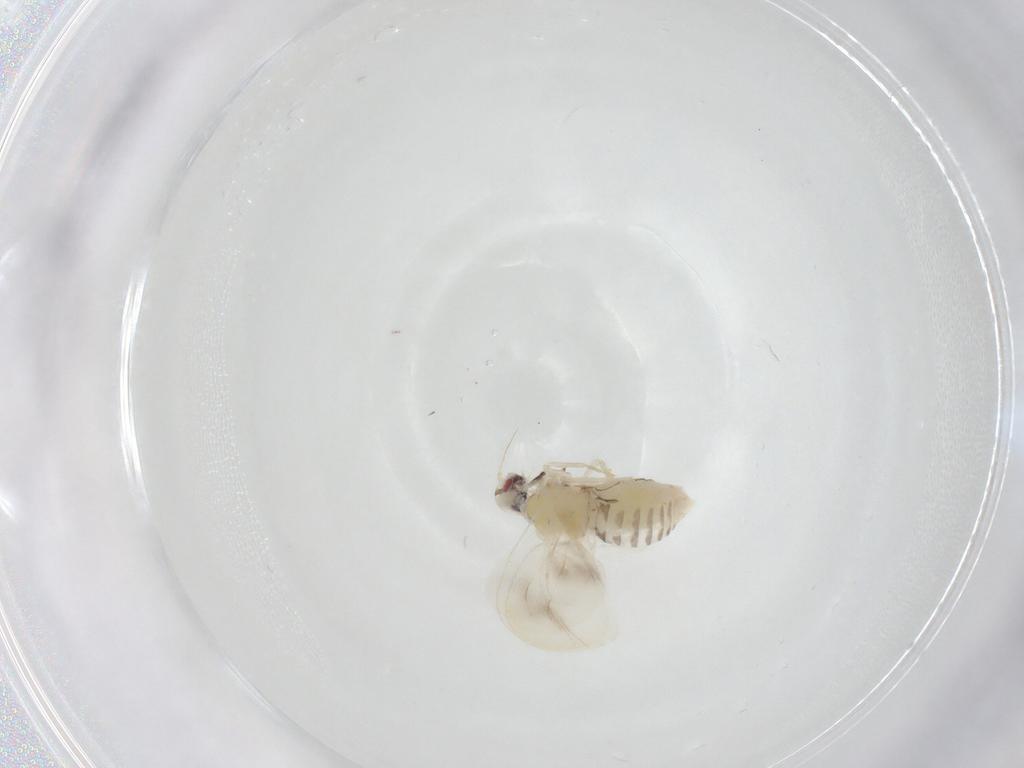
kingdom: Animalia
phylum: Arthropoda
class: Insecta
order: Hemiptera
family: Aleyrodidae
